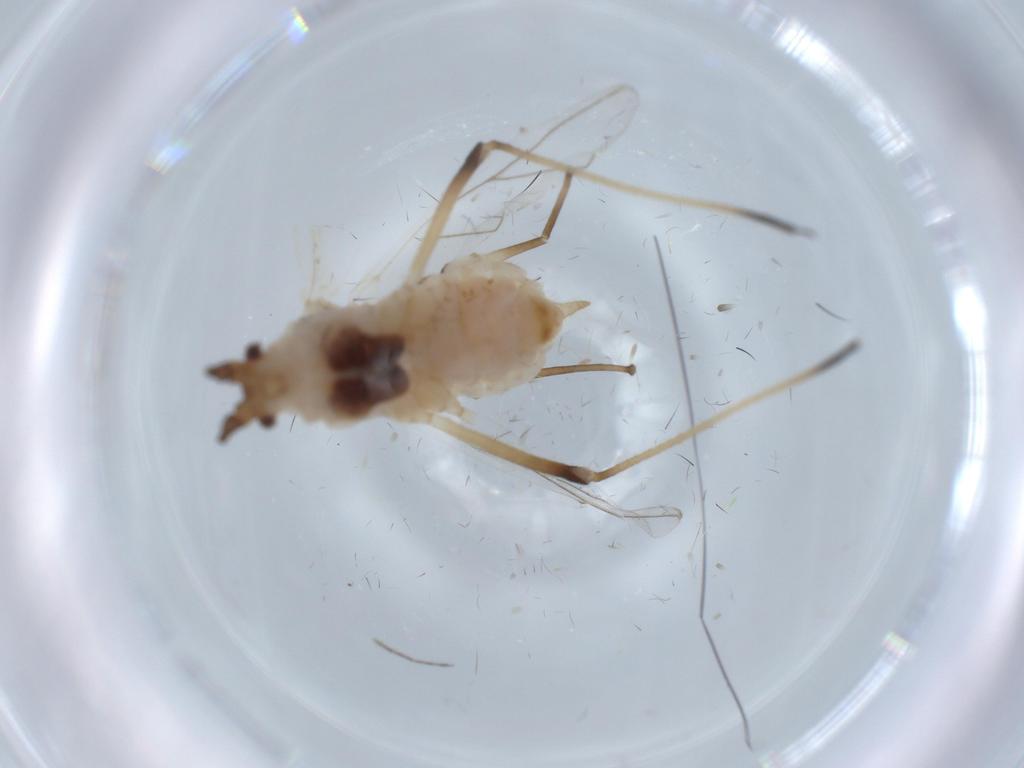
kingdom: Animalia
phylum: Arthropoda
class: Insecta
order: Hemiptera
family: Aphididae
